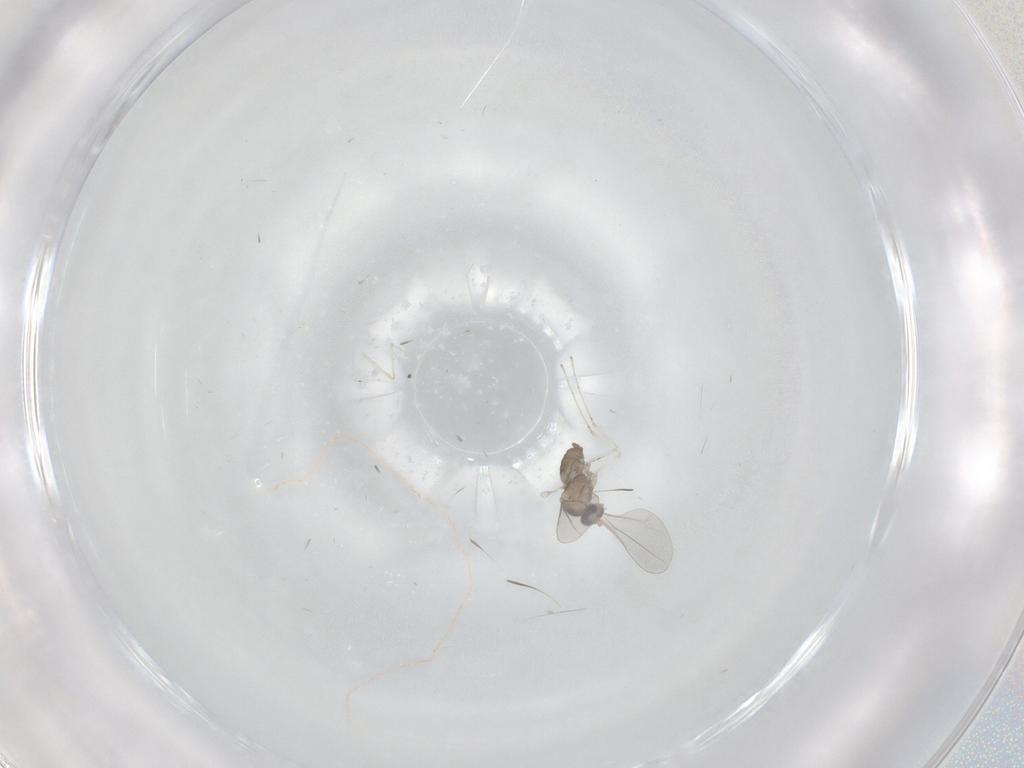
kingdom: Animalia
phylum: Arthropoda
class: Insecta
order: Diptera
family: Cecidomyiidae
